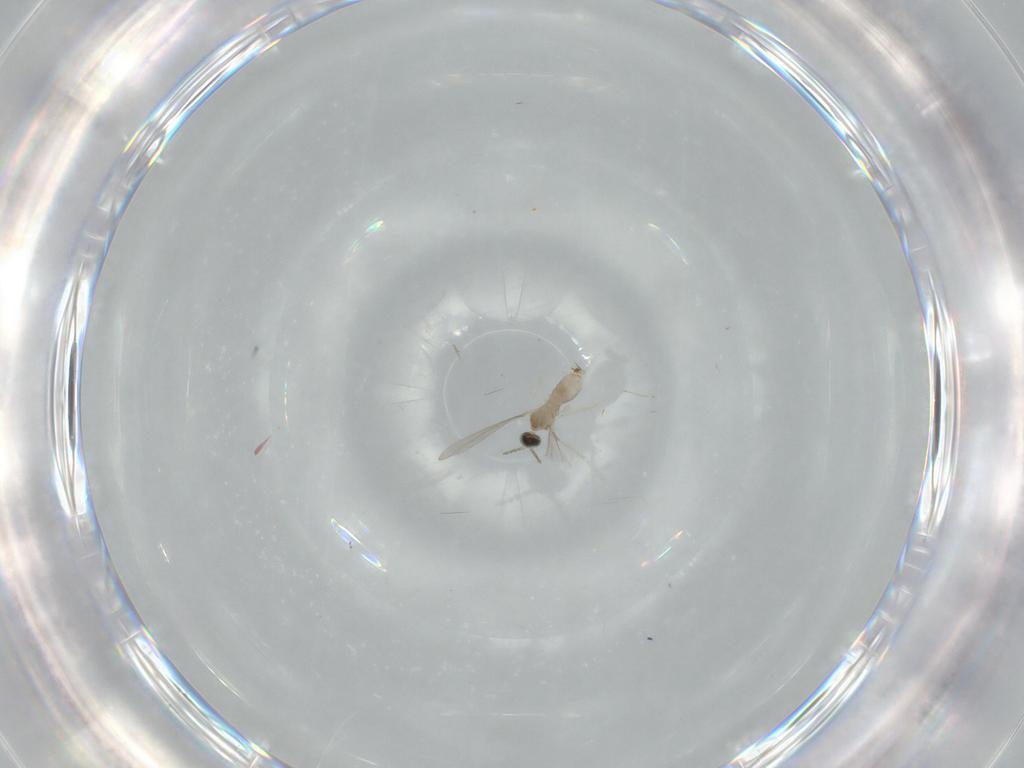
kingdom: Animalia
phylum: Arthropoda
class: Insecta
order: Diptera
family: Cecidomyiidae
